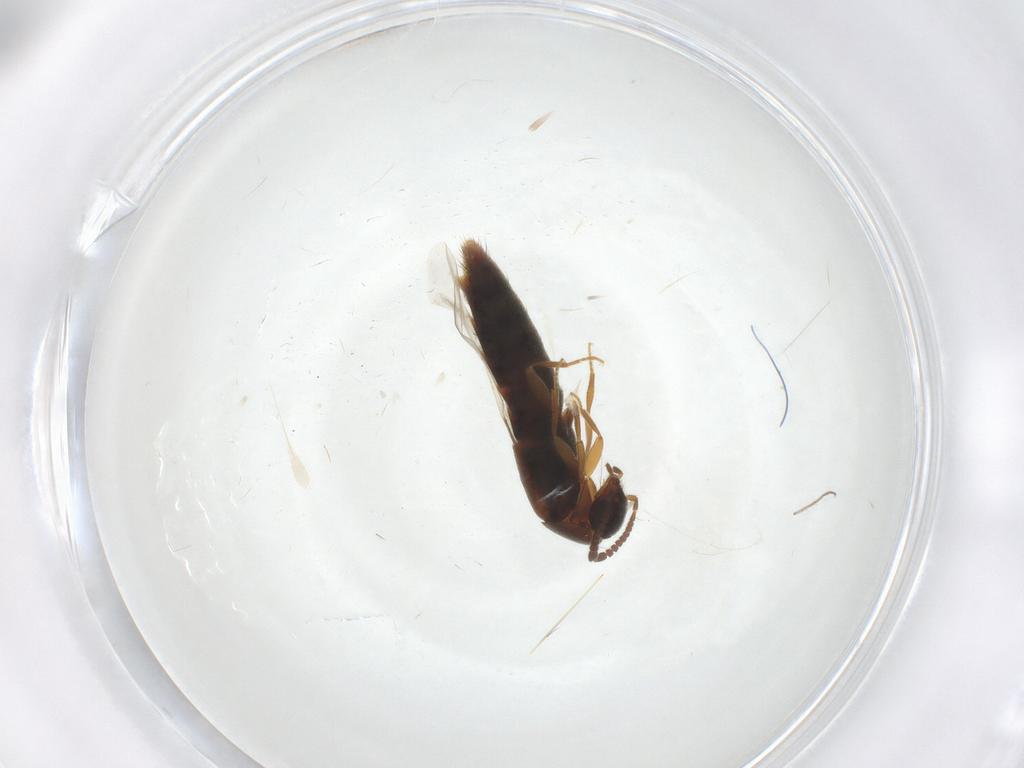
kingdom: Animalia
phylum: Arthropoda
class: Insecta
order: Coleoptera
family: Staphylinidae
